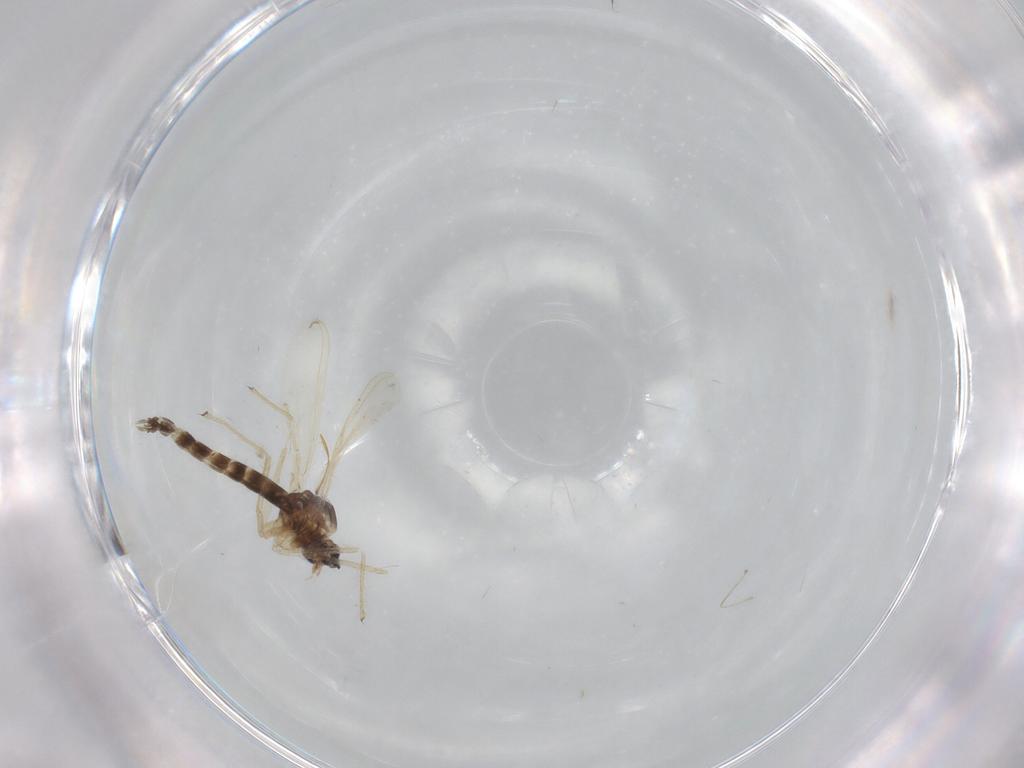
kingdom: Animalia
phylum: Arthropoda
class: Insecta
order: Diptera
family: Chironomidae
